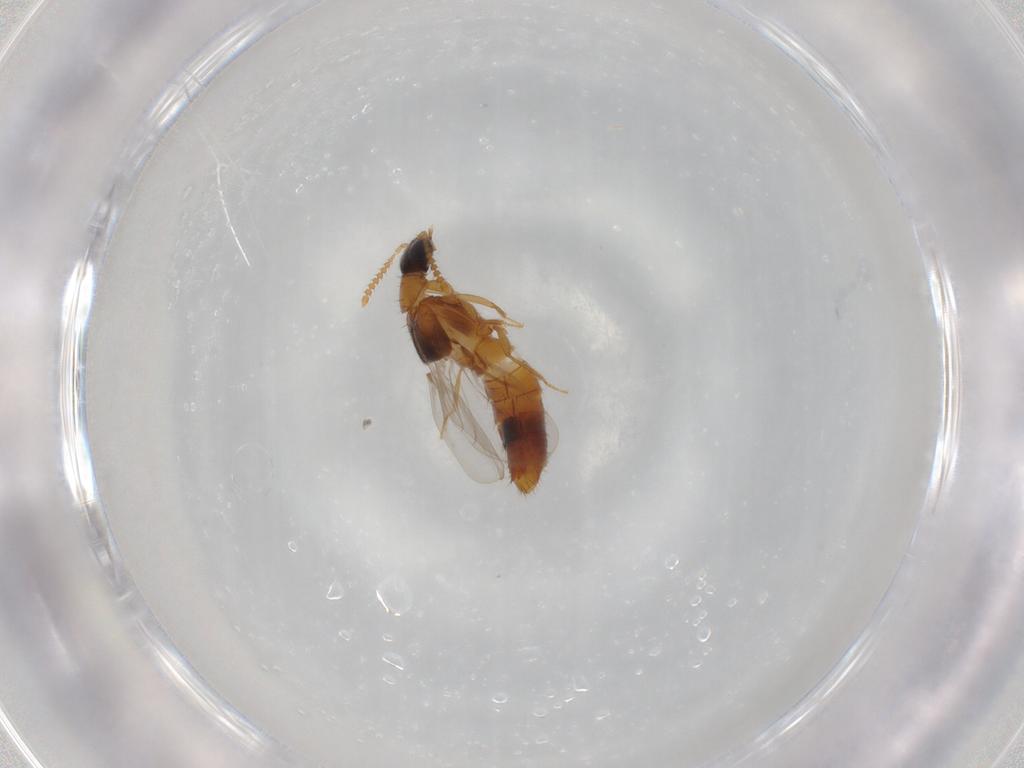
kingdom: Animalia
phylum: Arthropoda
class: Insecta
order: Coleoptera
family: Staphylinidae
